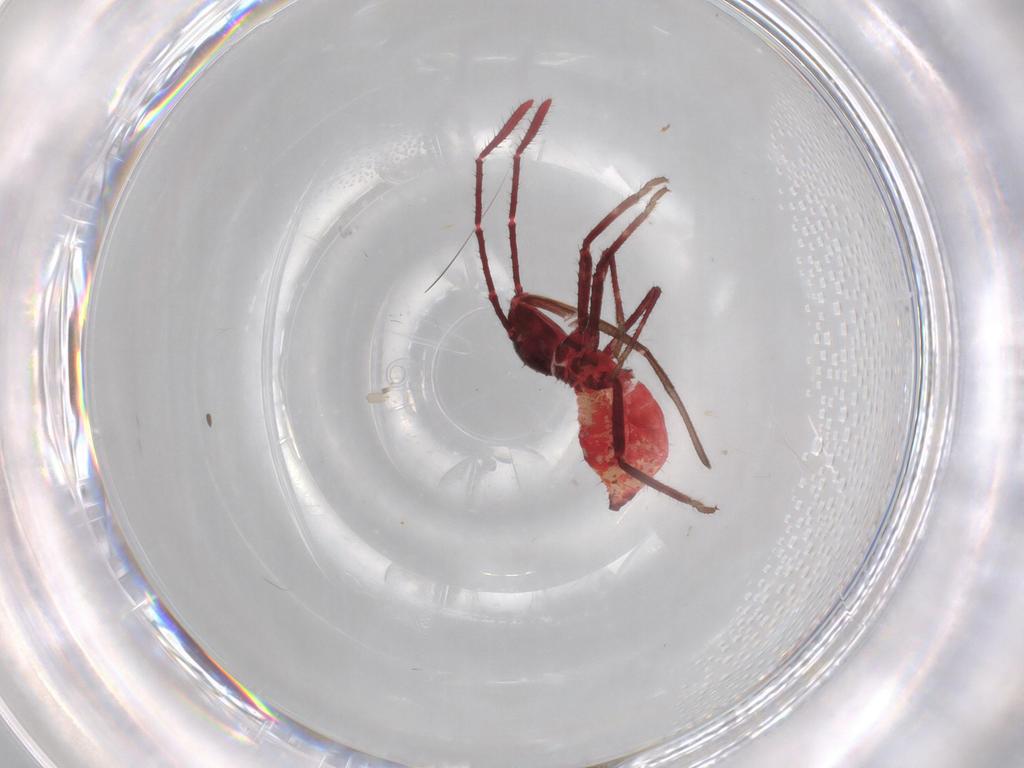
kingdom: Animalia
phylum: Arthropoda
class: Insecta
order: Hemiptera
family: Coreidae
